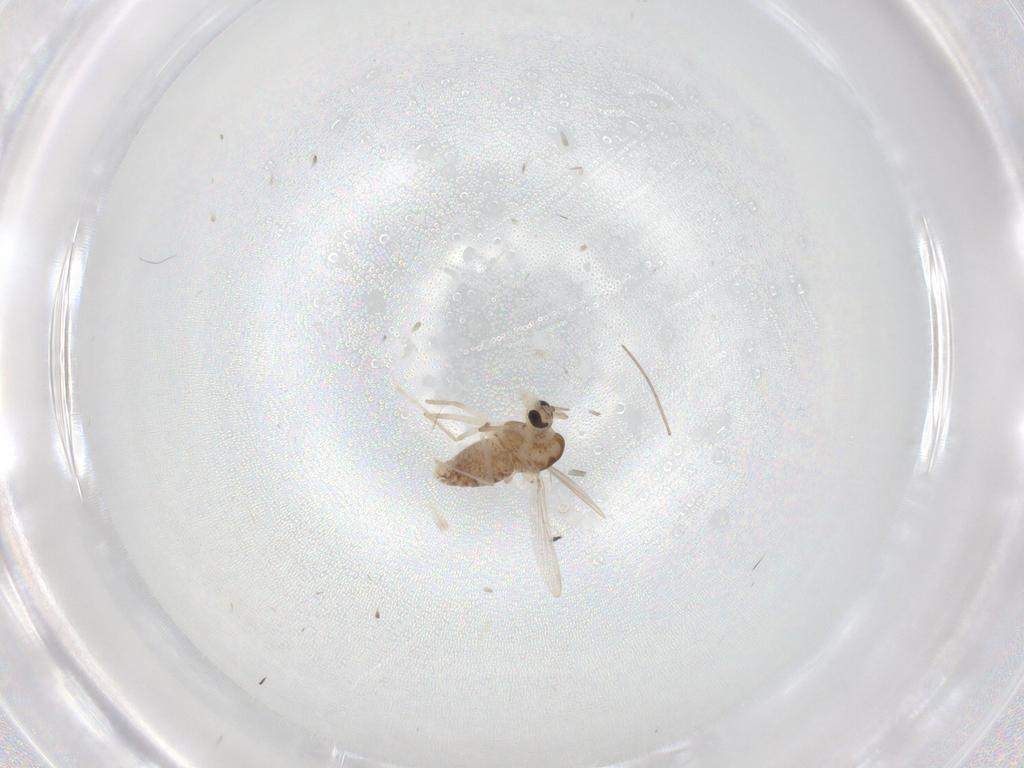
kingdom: Animalia
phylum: Arthropoda
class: Insecta
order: Diptera
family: Chironomidae
